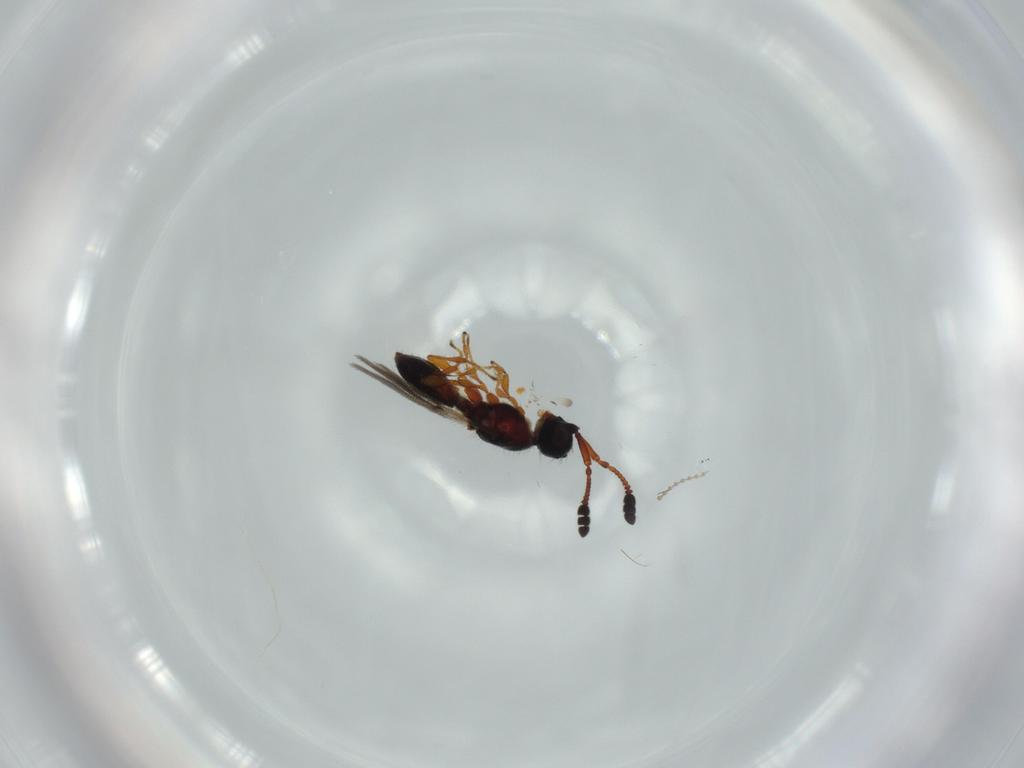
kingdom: Animalia
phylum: Arthropoda
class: Insecta
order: Hymenoptera
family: Diapriidae
